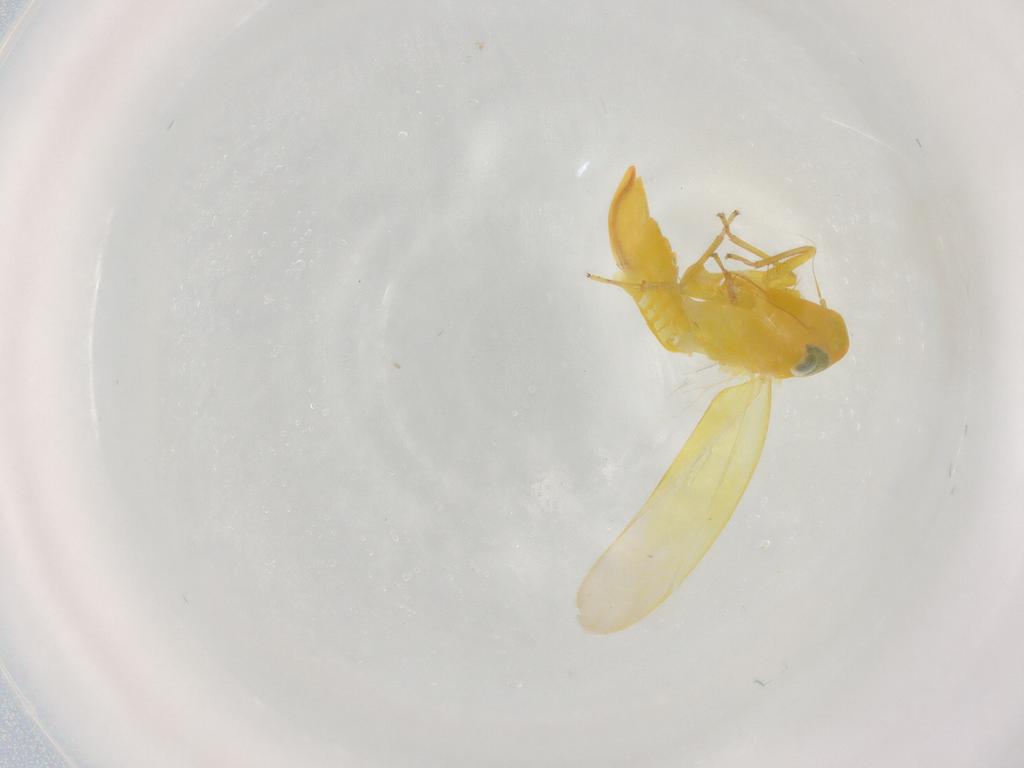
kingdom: Animalia
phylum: Arthropoda
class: Insecta
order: Hemiptera
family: Cicadellidae
